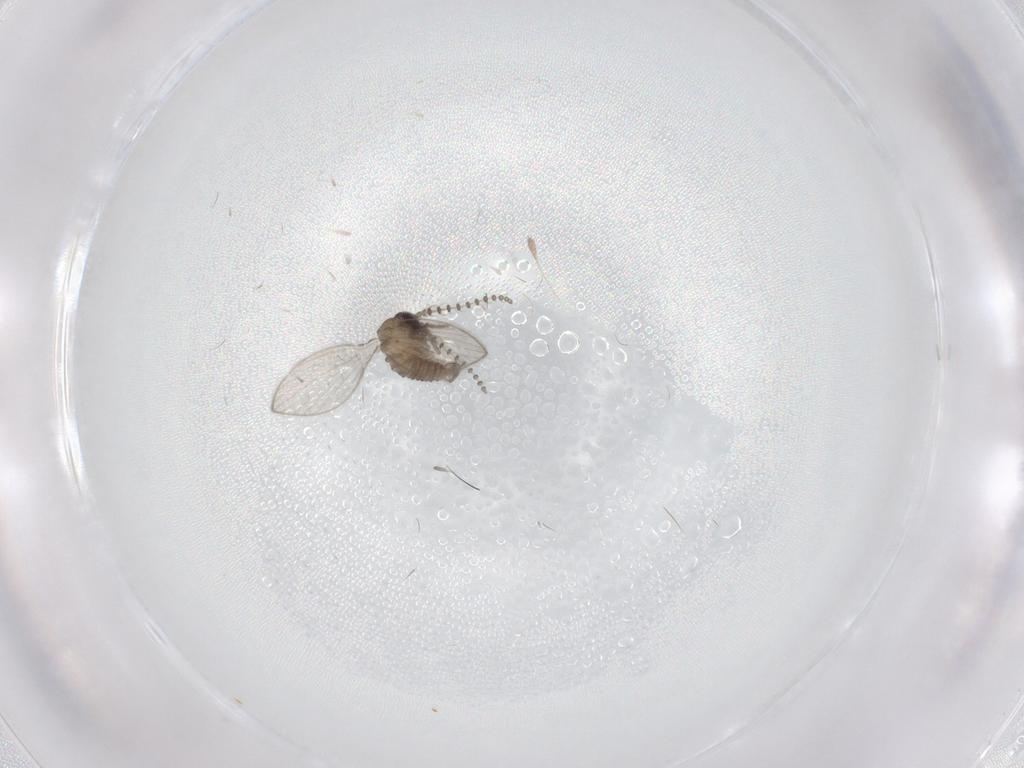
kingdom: Animalia
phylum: Arthropoda
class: Insecta
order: Diptera
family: Psychodidae
